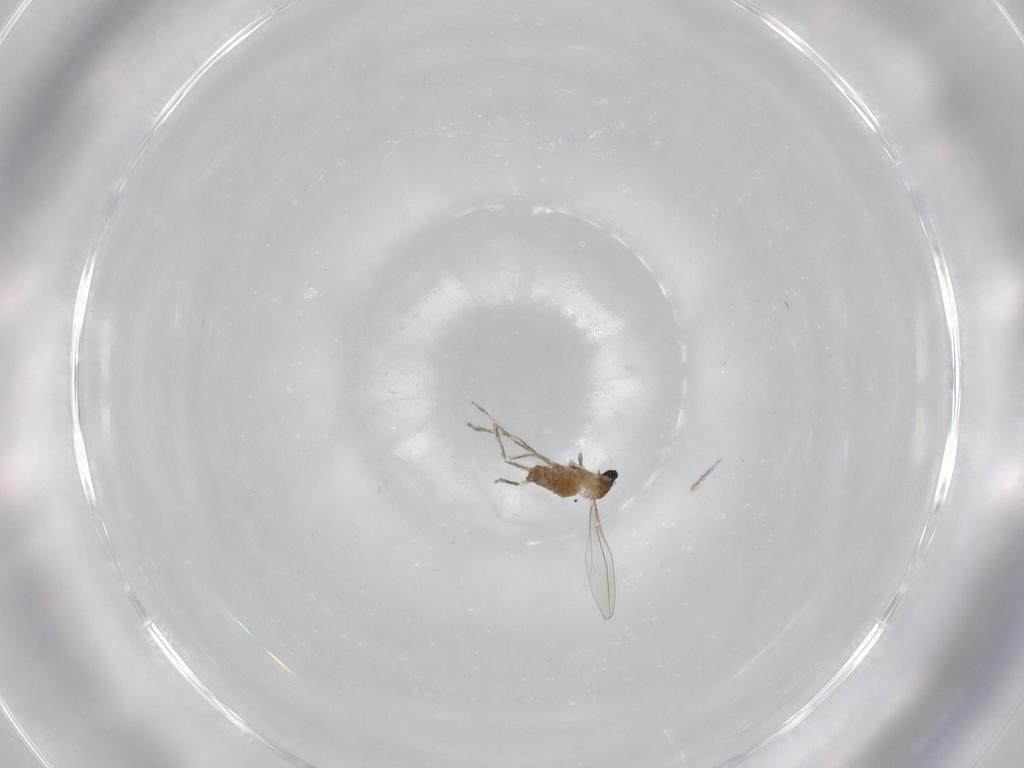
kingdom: Animalia
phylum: Arthropoda
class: Insecta
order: Diptera
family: Cecidomyiidae
